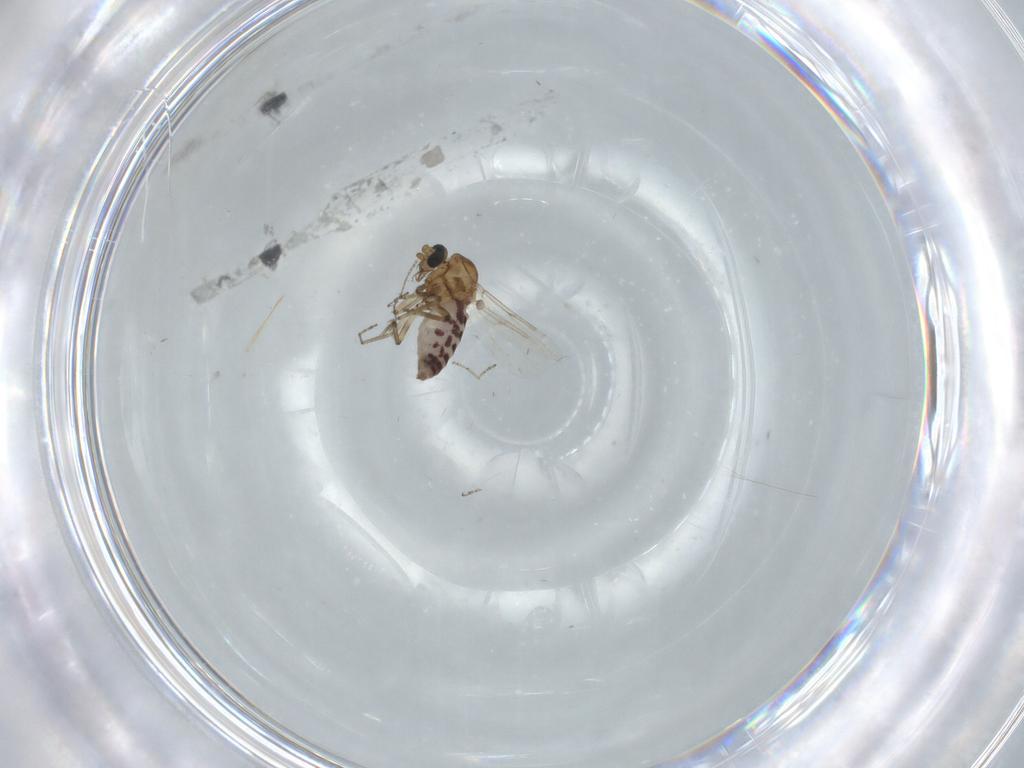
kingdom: Animalia
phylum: Arthropoda
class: Insecta
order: Diptera
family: Ceratopogonidae
